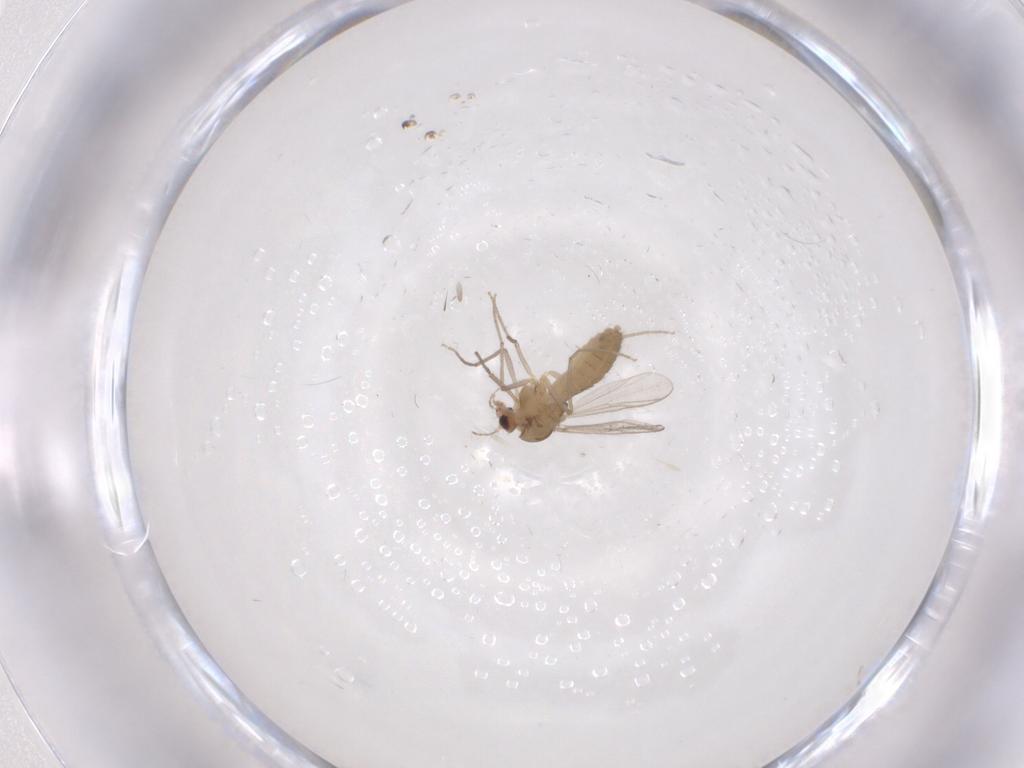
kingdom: Animalia
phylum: Arthropoda
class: Insecta
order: Diptera
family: Chironomidae
